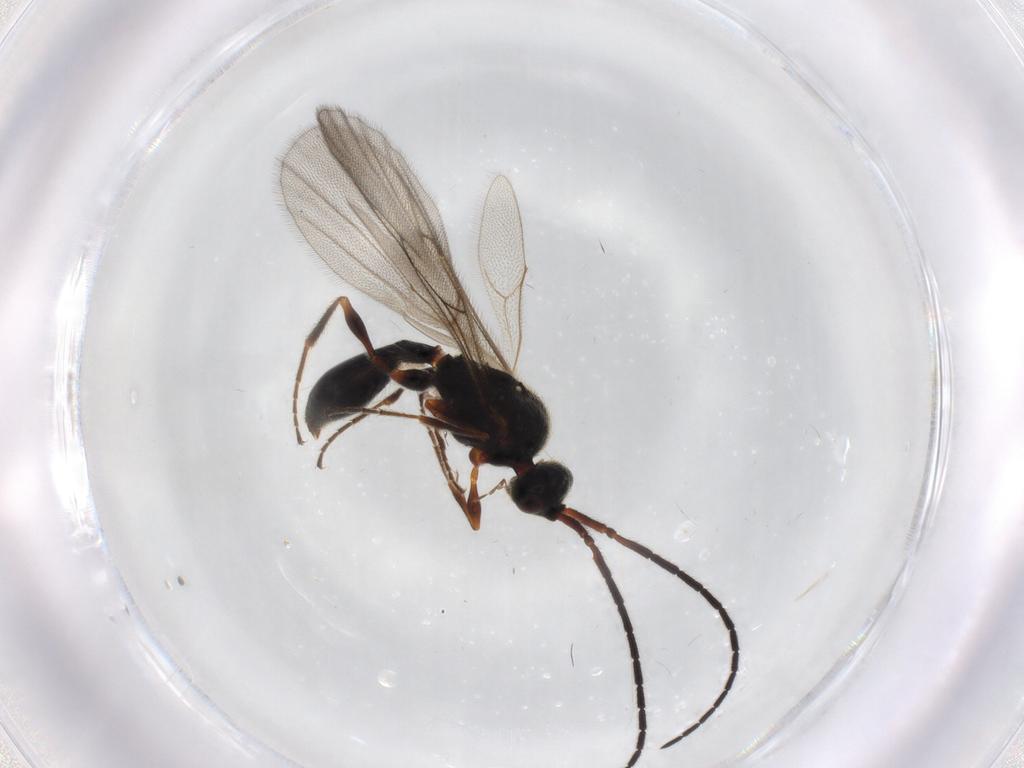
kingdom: Animalia
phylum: Arthropoda
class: Insecta
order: Hymenoptera
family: Diapriidae
